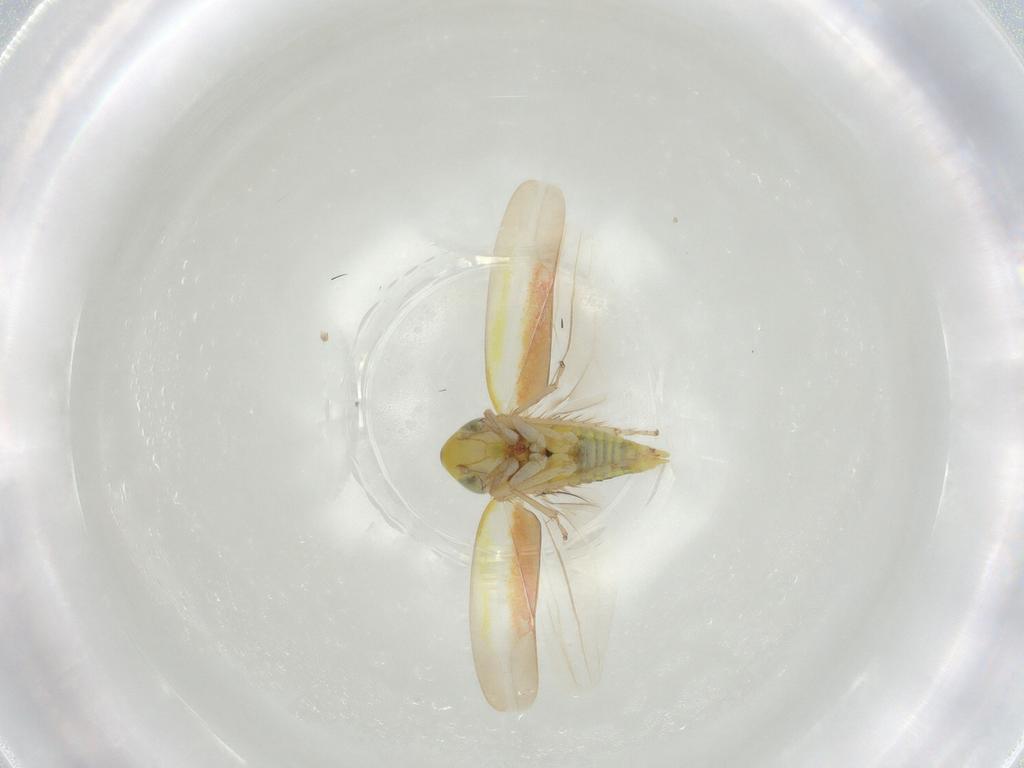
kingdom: Animalia
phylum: Arthropoda
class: Insecta
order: Hemiptera
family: Cicadellidae
